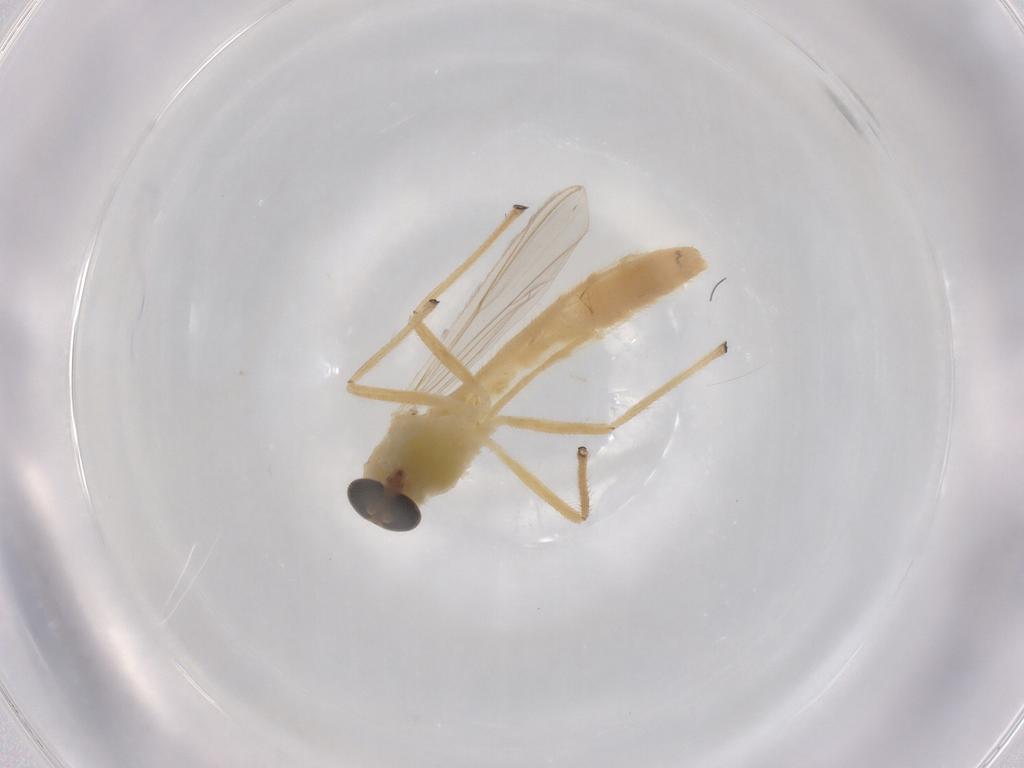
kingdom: Animalia
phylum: Arthropoda
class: Insecta
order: Diptera
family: Chironomidae
